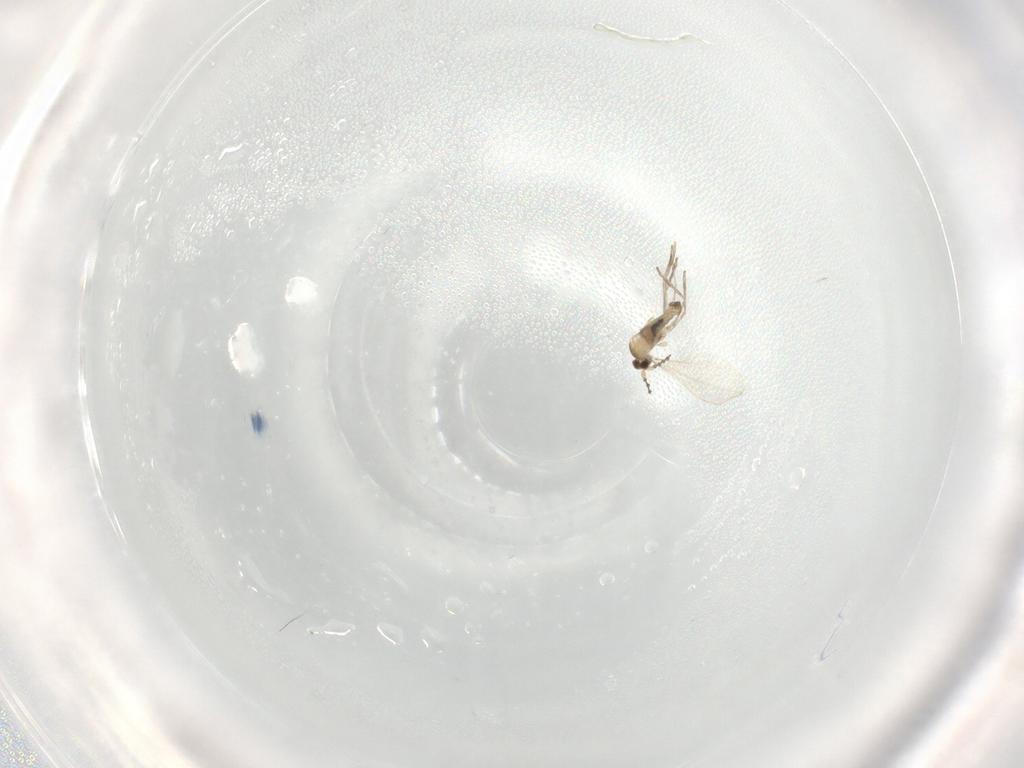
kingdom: Animalia
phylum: Arthropoda
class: Insecta
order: Diptera
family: Cecidomyiidae
